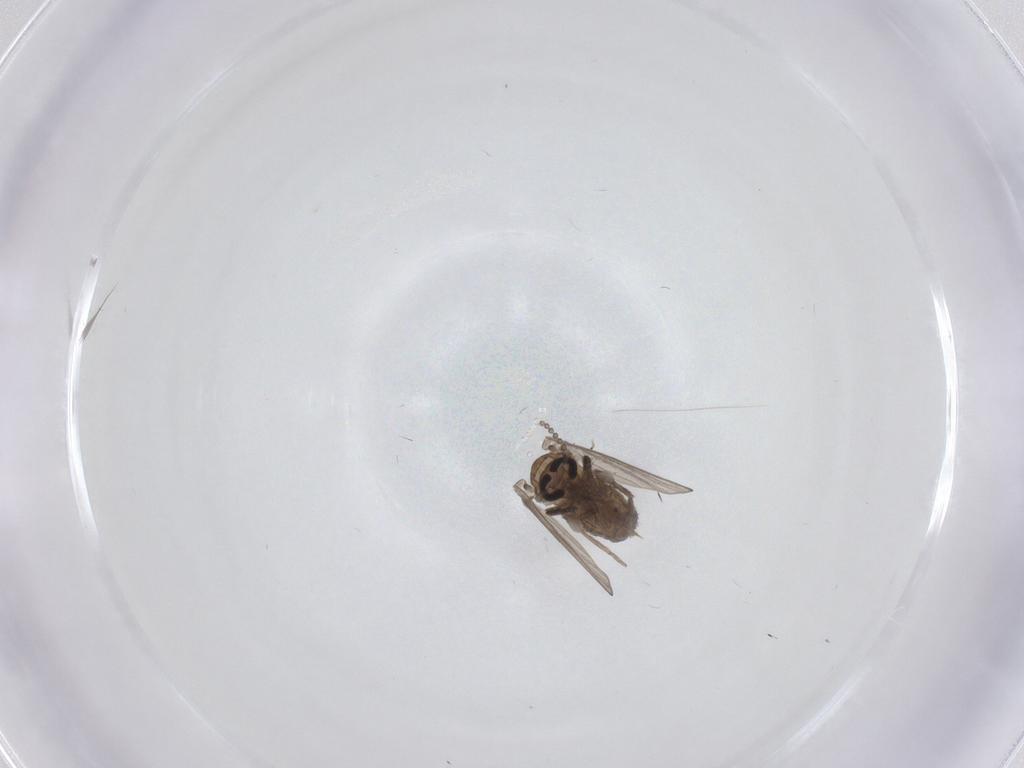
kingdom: Animalia
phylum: Arthropoda
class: Insecta
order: Diptera
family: Psychodidae
